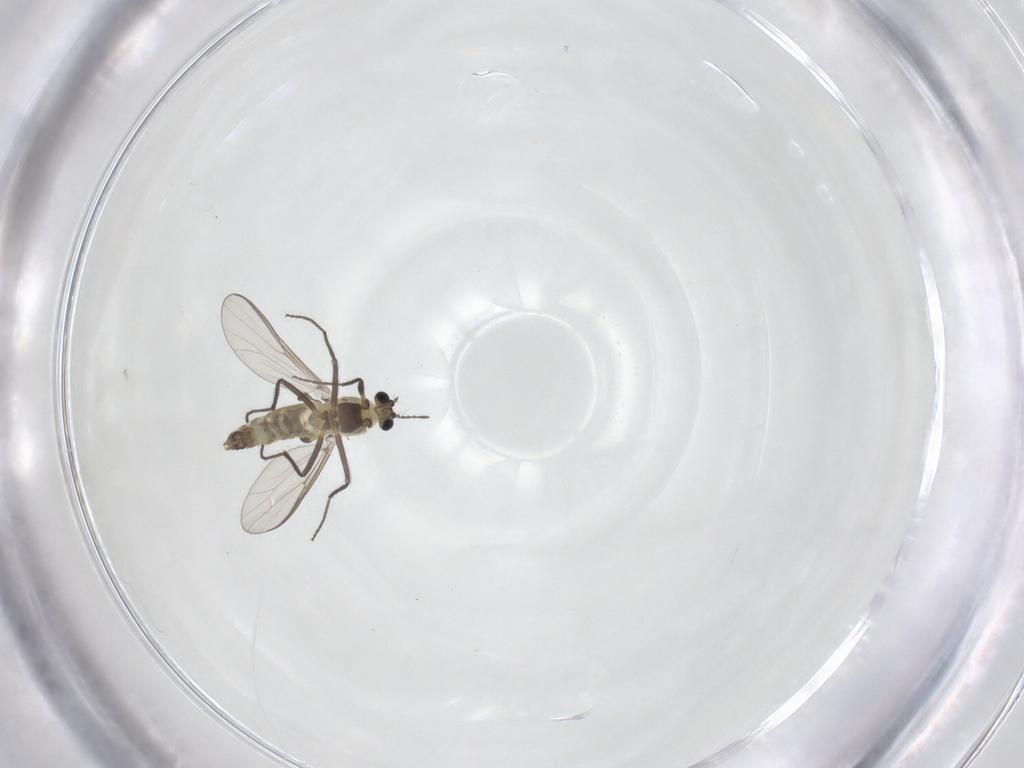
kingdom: Animalia
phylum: Arthropoda
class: Insecta
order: Diptera
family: Chironomidae
